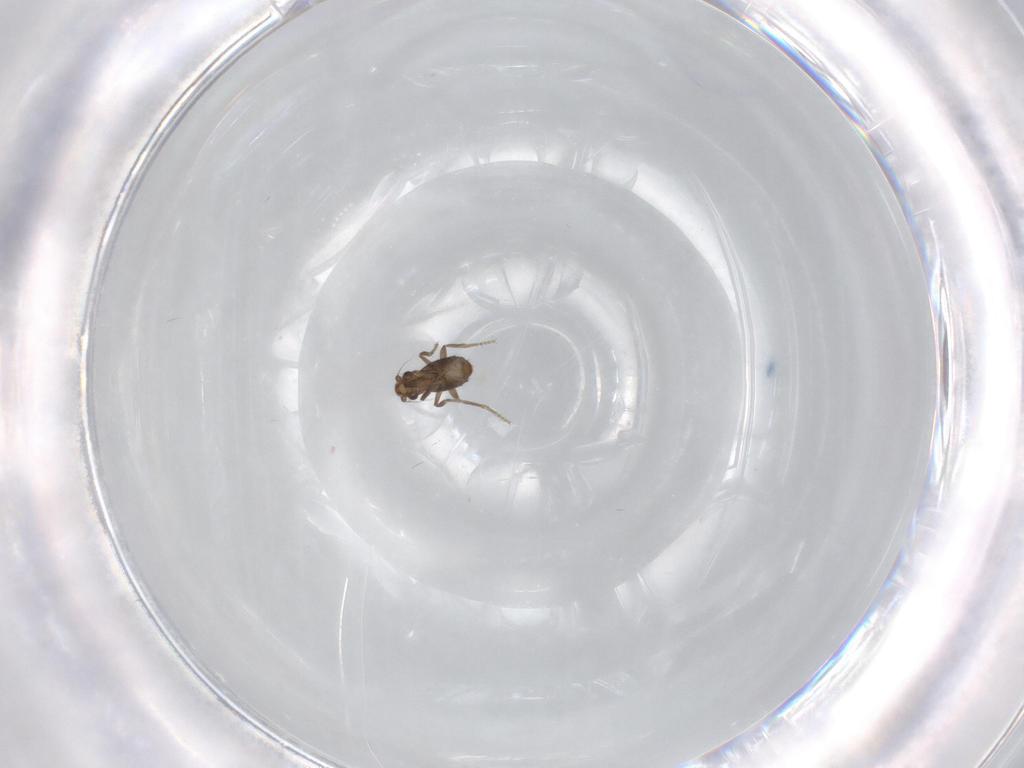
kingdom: Animalia
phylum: Arthropoda
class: Insecta
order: Diptera
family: Phoridae
